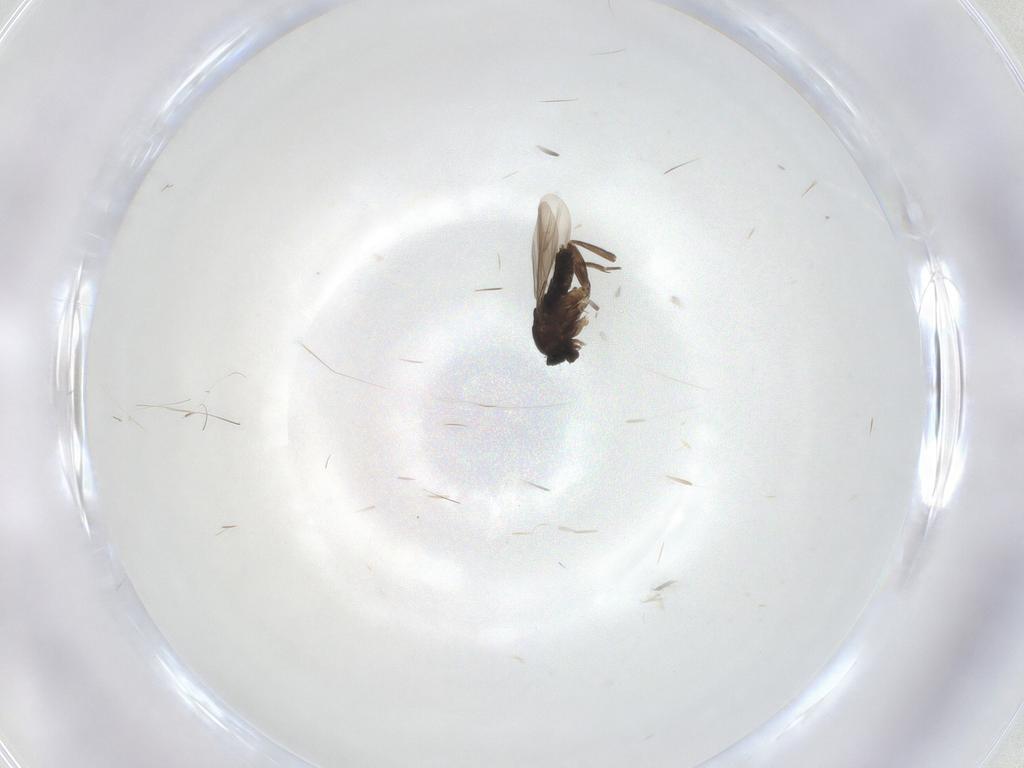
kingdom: Animalia
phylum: Arthropoda
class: Insecta
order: Diptera
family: Phoridae
